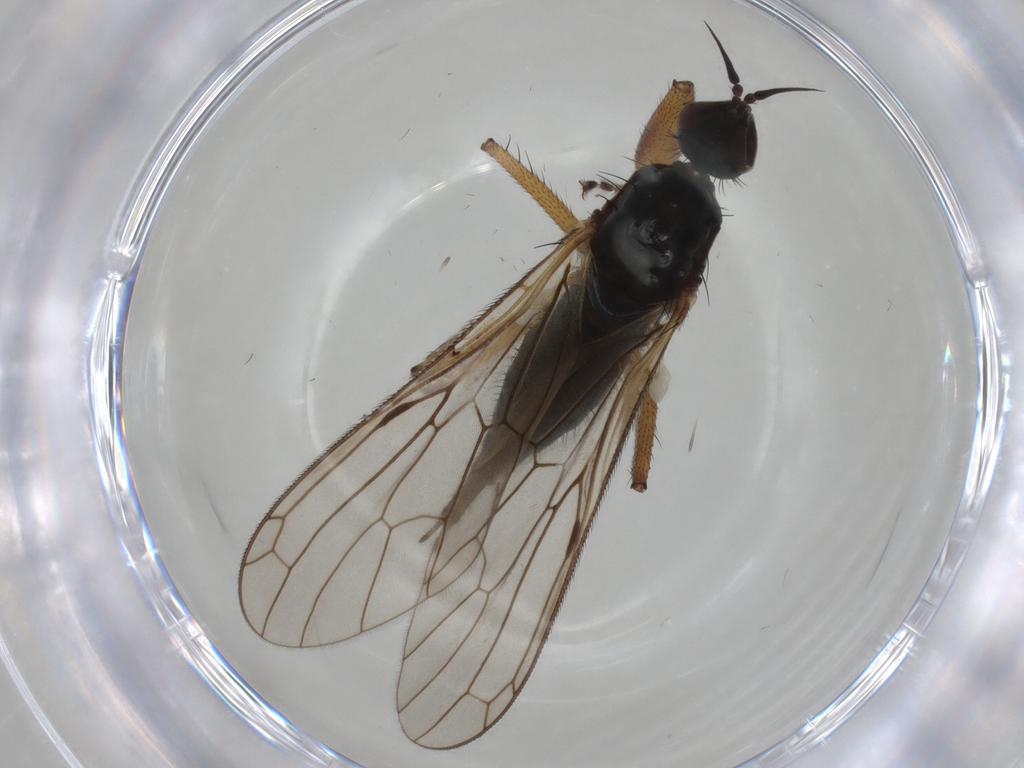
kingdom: Animalia
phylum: Arthropoda
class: Insecta
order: Diptera
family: Empididae
